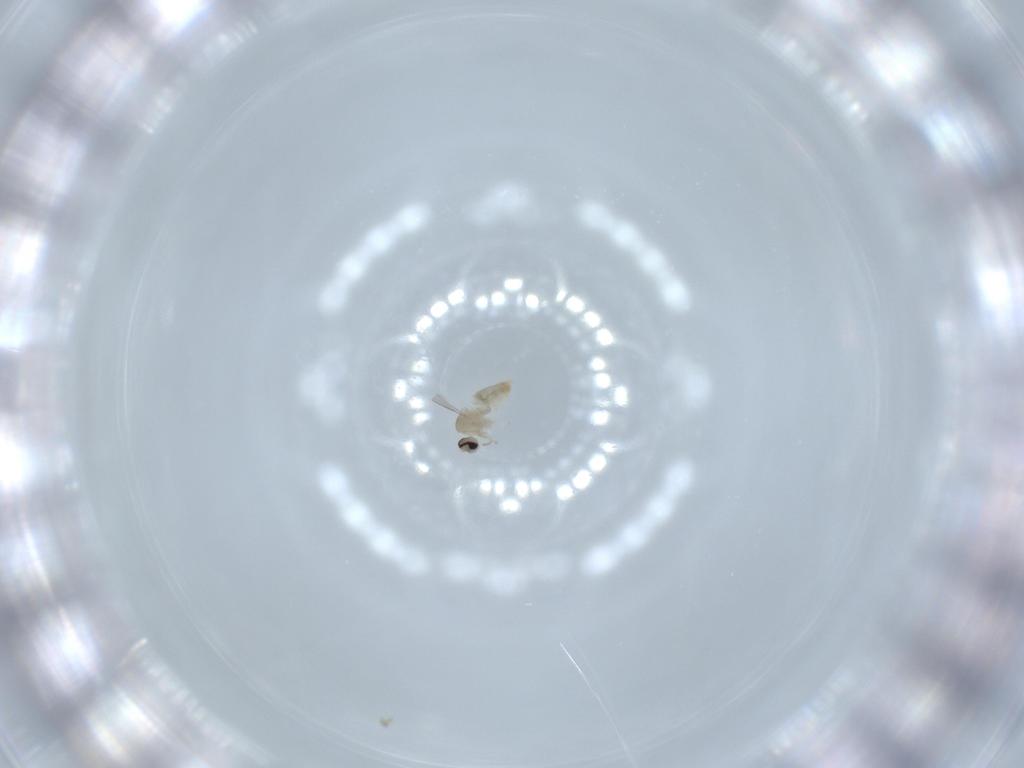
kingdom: Animalia
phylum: Arthropoda
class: Insecta
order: Diptera
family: Cecidomyiidae
